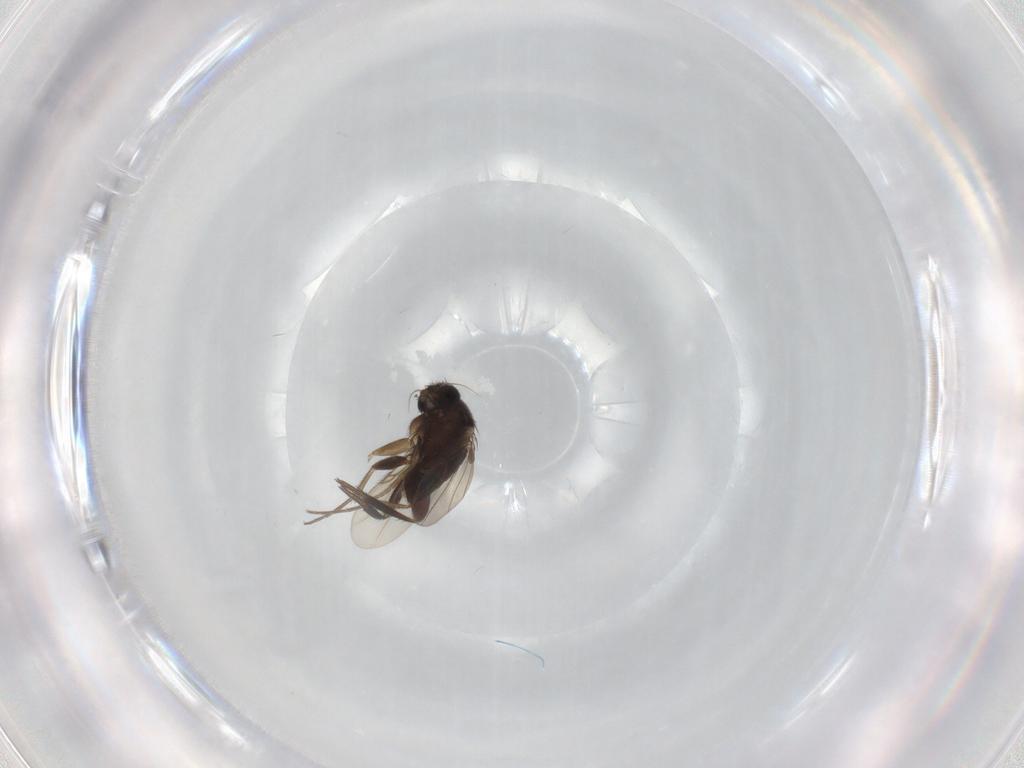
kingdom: Animalia
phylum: Arthropoda
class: Insecta
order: Diptera
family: Phoridae
